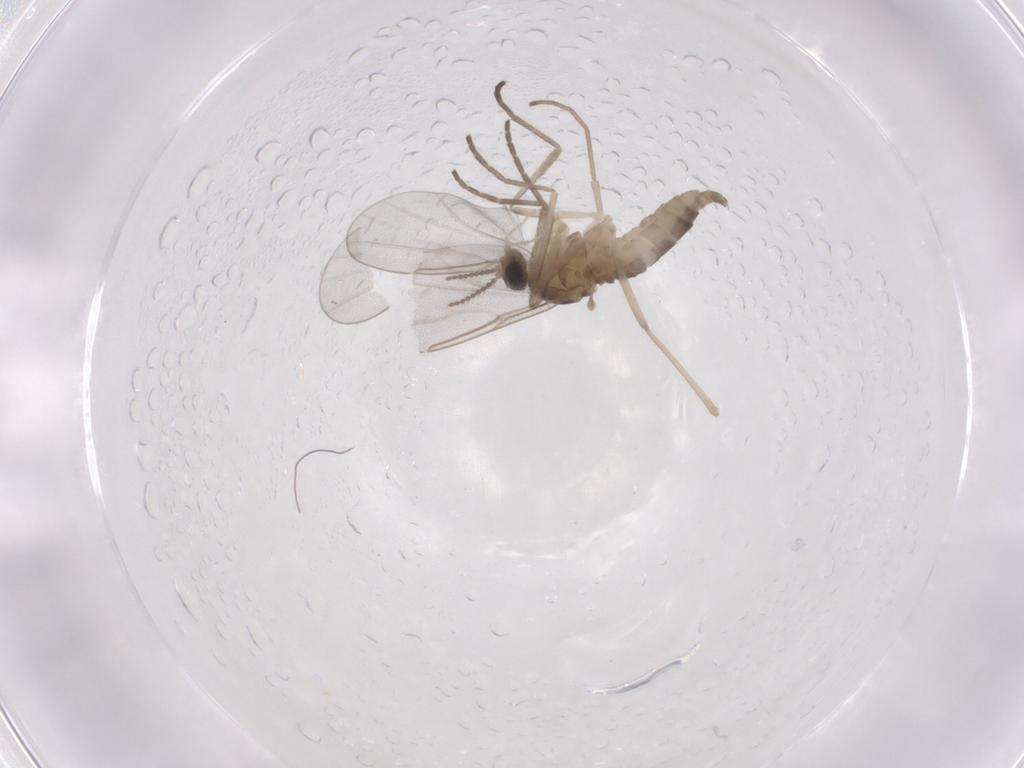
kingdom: Animalia
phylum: Arthropoda
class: Insecta
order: Diptera
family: Cecidomyiidae
